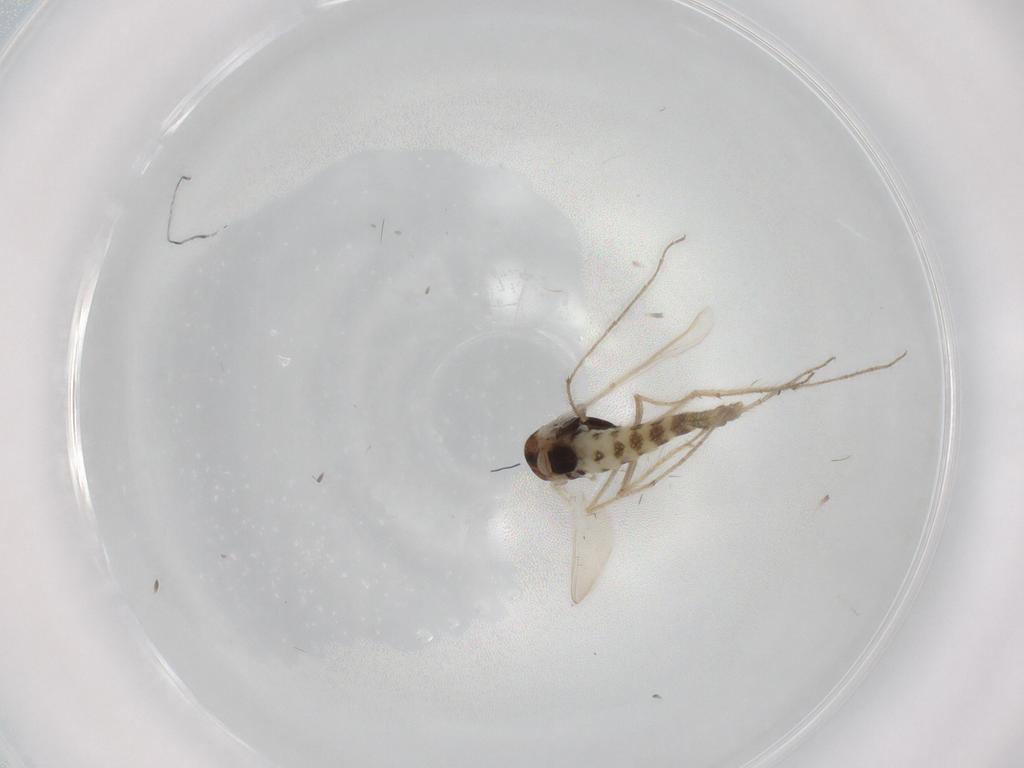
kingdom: Animalia
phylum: Arthropoda
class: Insecta
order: Diptera
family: Chironomidae
